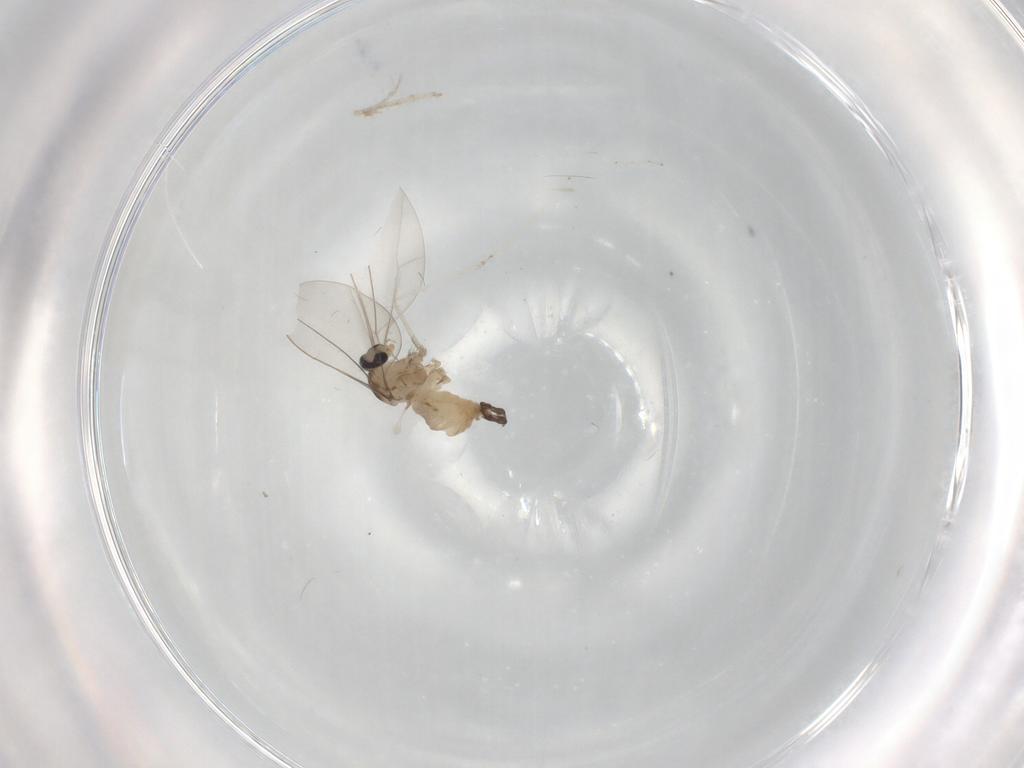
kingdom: Animalia
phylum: Arthropoda
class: Insecta
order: Diptera
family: Cecidomyiidae
